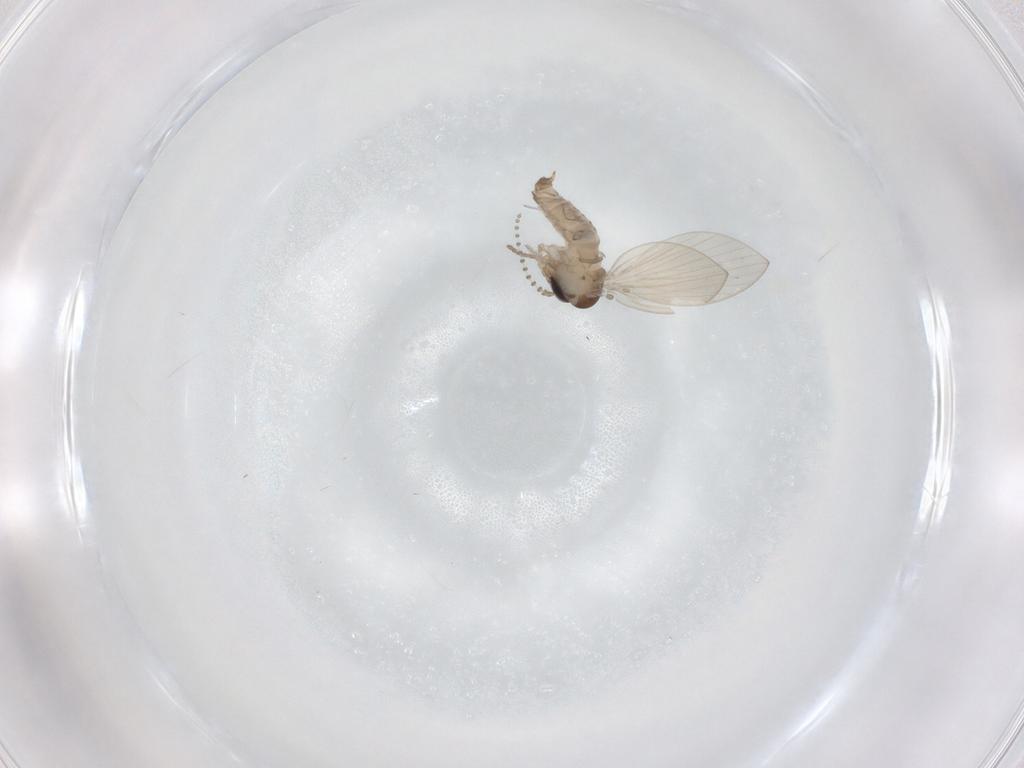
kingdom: Animalia
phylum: Arthropoda
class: Insecta
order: Diptera
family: Psychodidae
